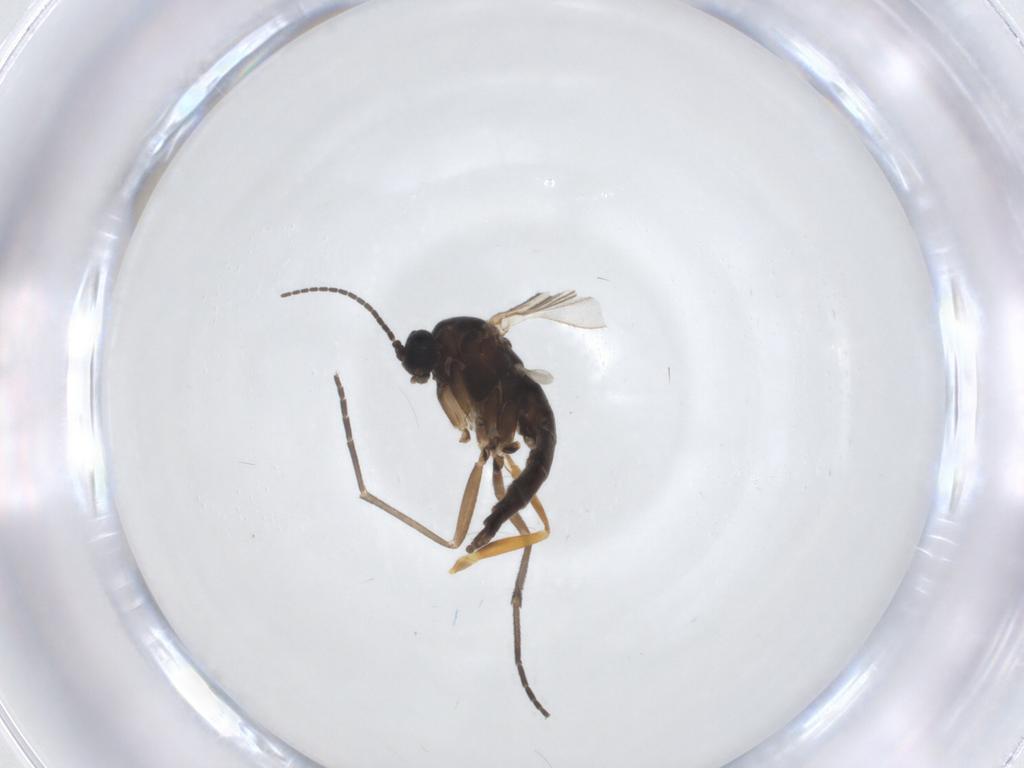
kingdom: Animalia
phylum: Arthropoda
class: Insecta
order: Diptera
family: Sciaridae
